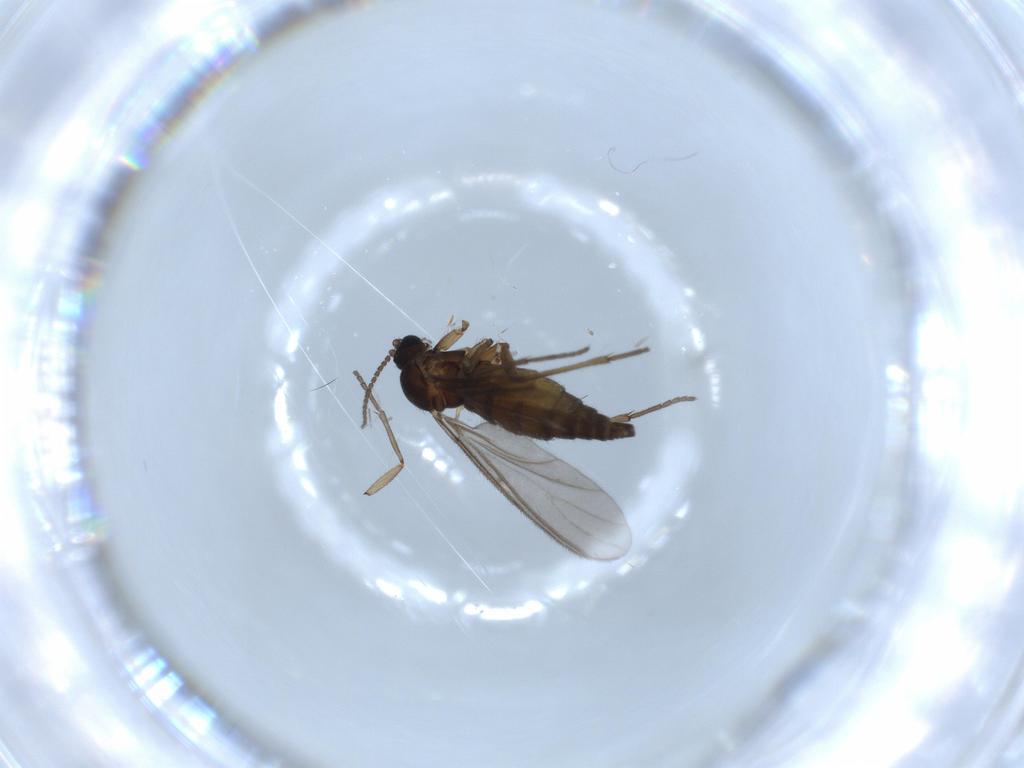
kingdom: Animalia
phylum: Arthropoda
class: Insecta
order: Diptera
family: Sciaridae
